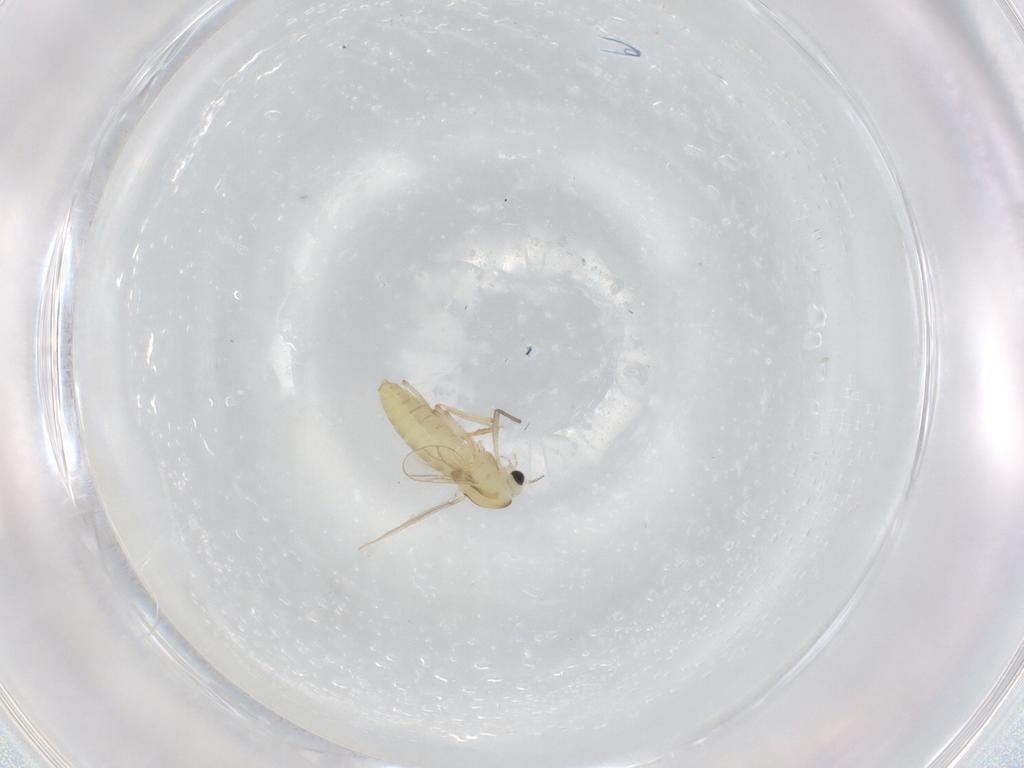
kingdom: Animalia
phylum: Arthropoda
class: Insecta
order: Diptera
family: Chironomidae
